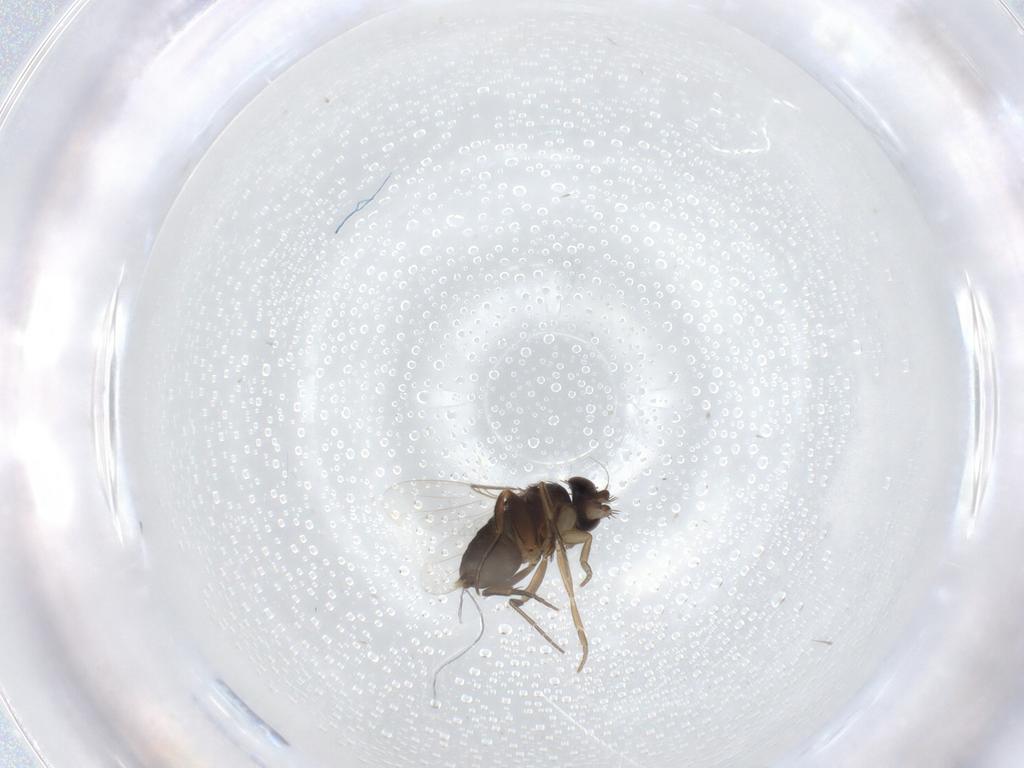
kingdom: Animalia
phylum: Arthropoda
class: Insecta
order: Diptera
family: Phoridae
